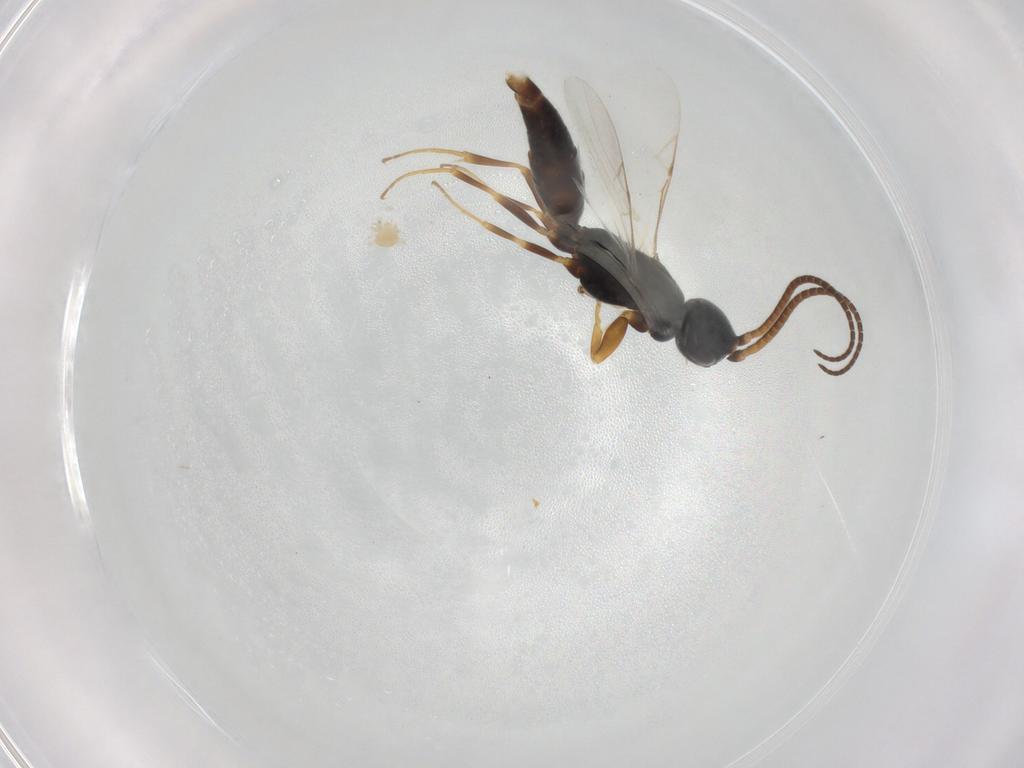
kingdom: Animalia
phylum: Arthropoda
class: Insecta
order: Hymenoptera
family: Sclerogibbidae
